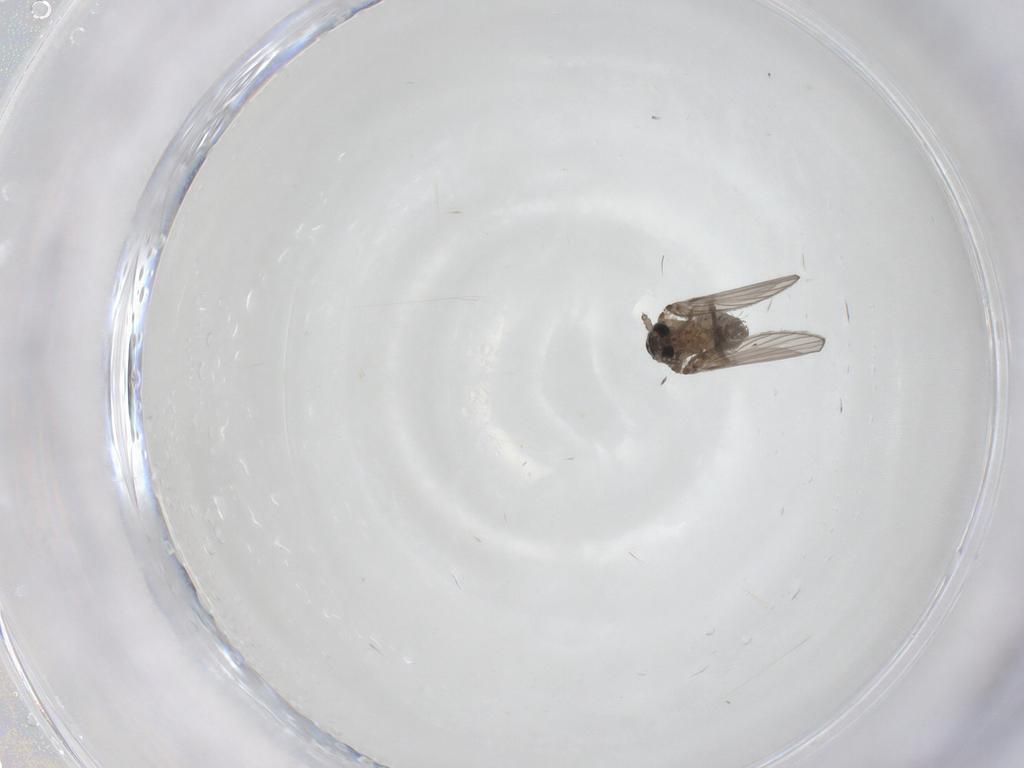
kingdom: Animalia
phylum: Arthropoda
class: Insecta
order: Diptera
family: Psychodidae
